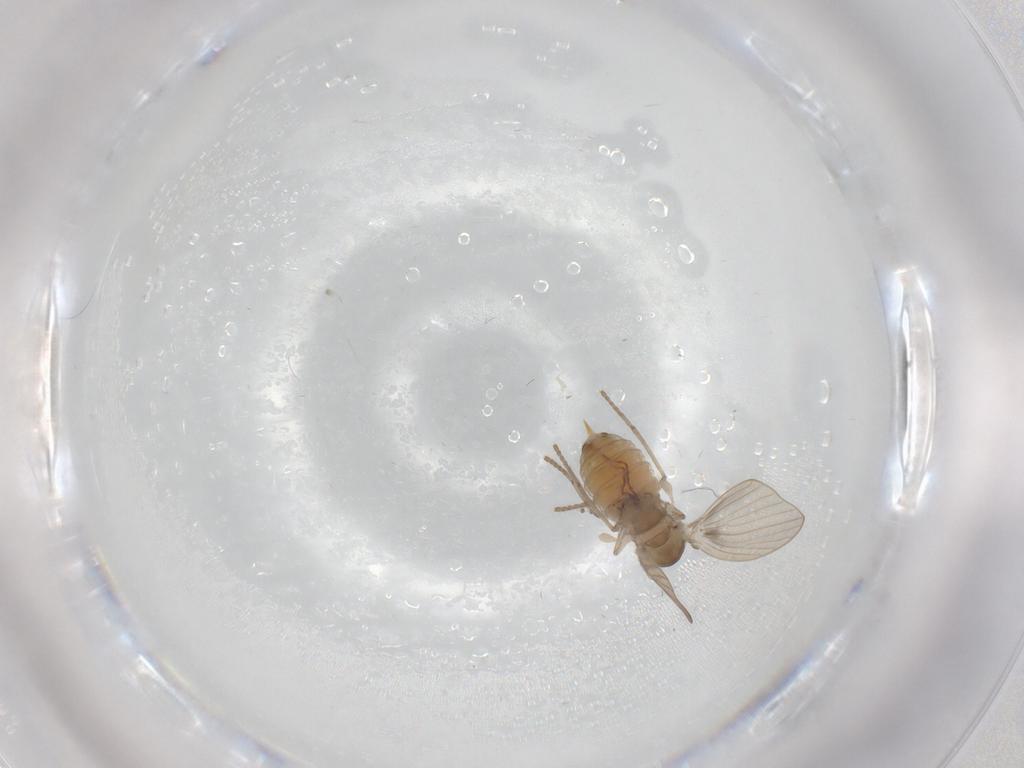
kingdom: Animalia
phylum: Arthropoda
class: Insecta
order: Diptera
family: Psychodidae
